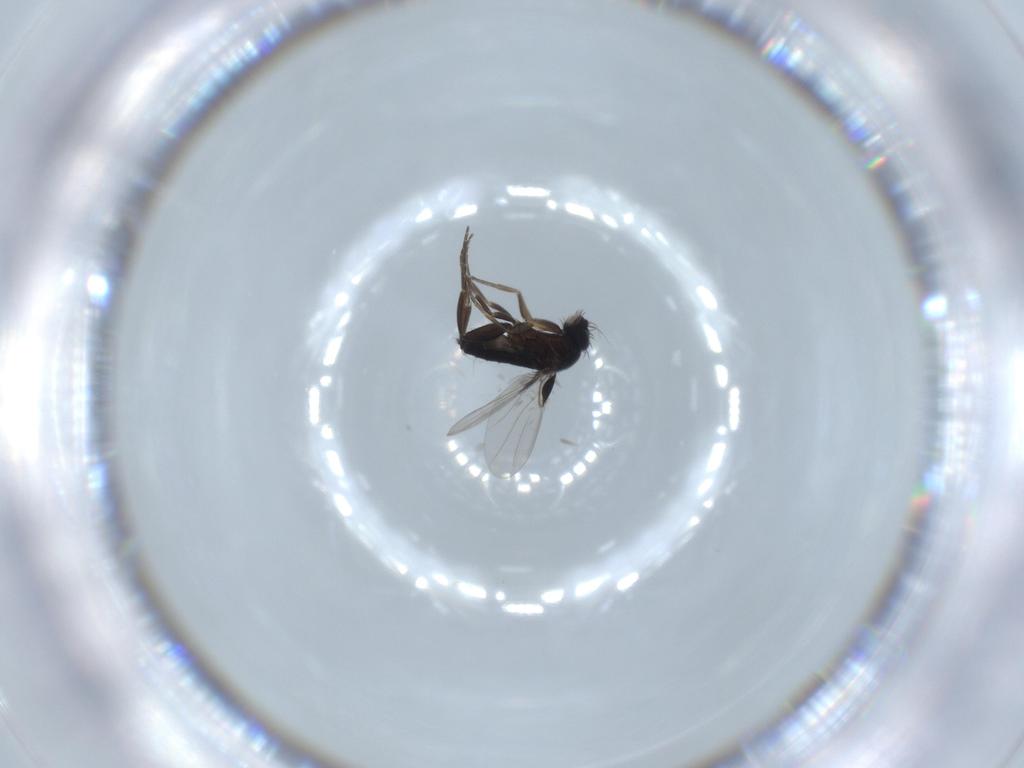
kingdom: Animalia
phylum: Arthropoda
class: Insecta
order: Diptera
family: Phoridae
